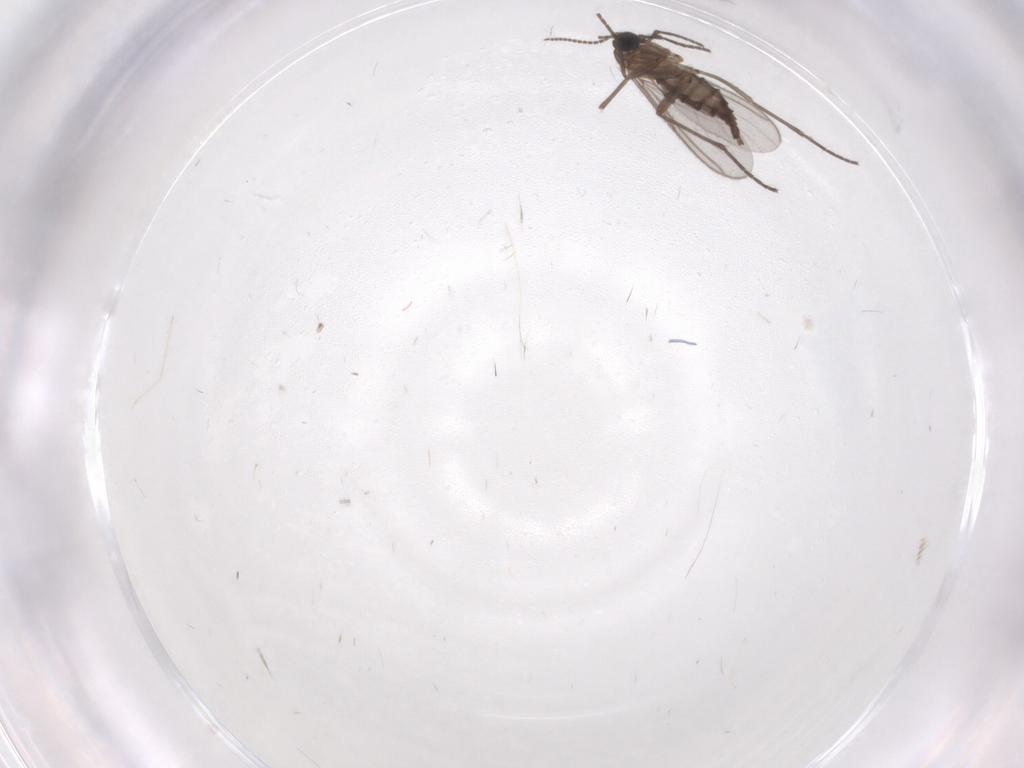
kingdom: Animalia
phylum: Arthropoda
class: Insecta
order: Diptera
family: Sciaridae
